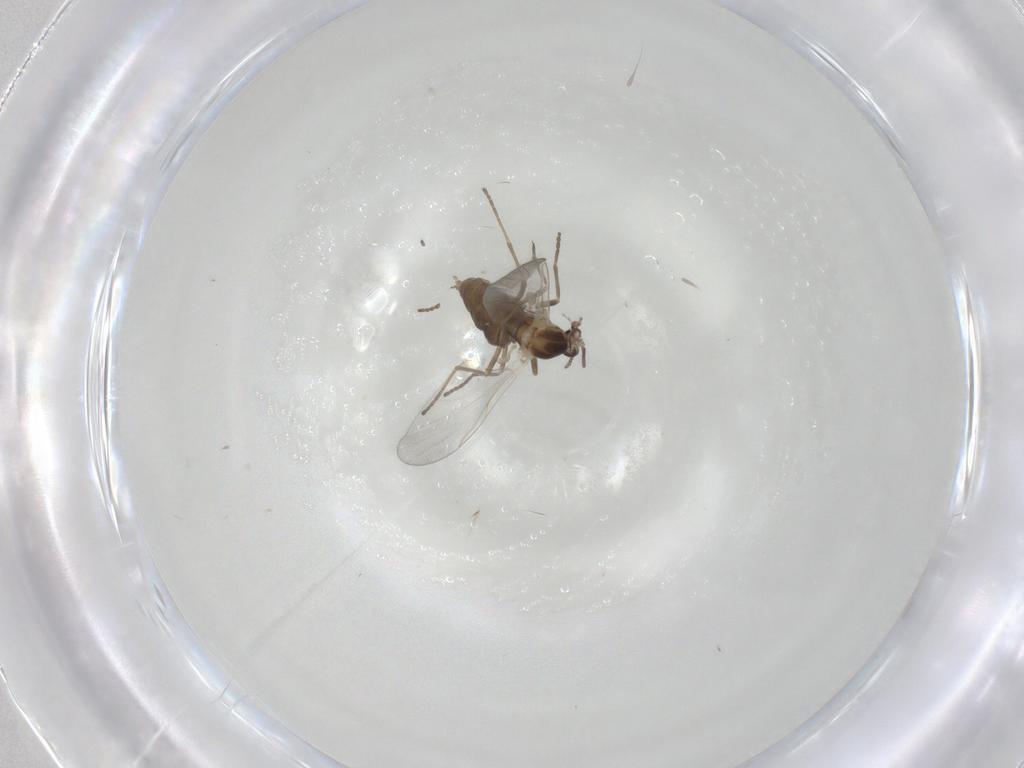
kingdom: Animalia
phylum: Arthropoda
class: Insecta
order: Diptera
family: Cecidomyiidae
